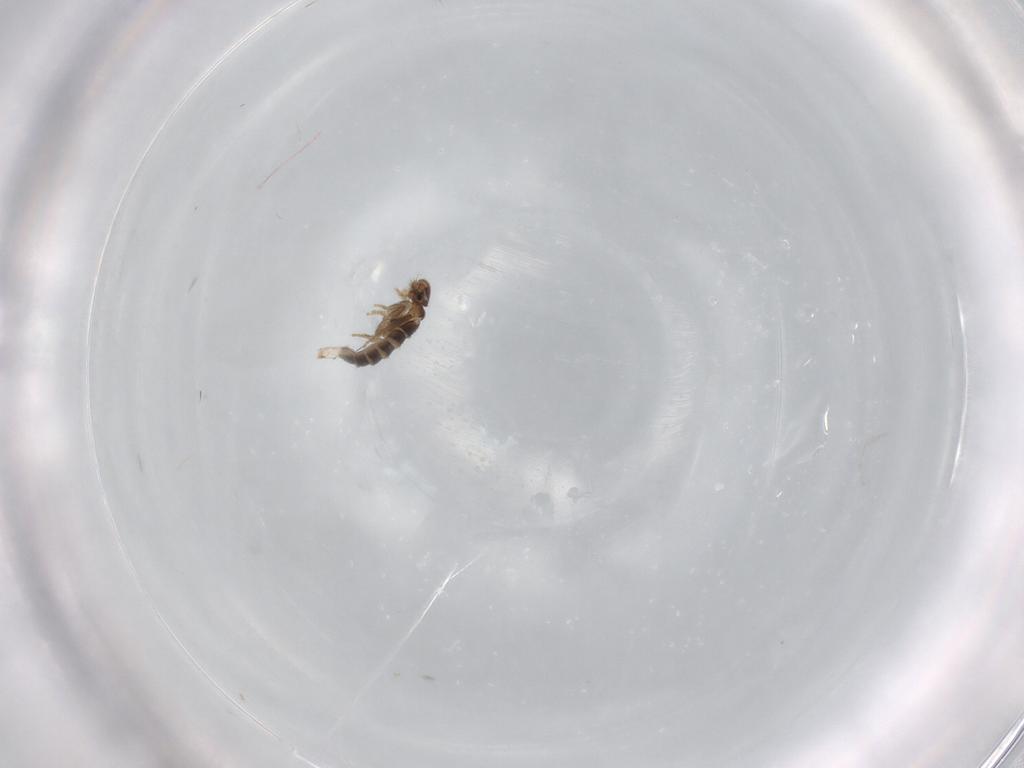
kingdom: Animalia
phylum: Arthropoda
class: Insecta
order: Diptera
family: Sciaridae
